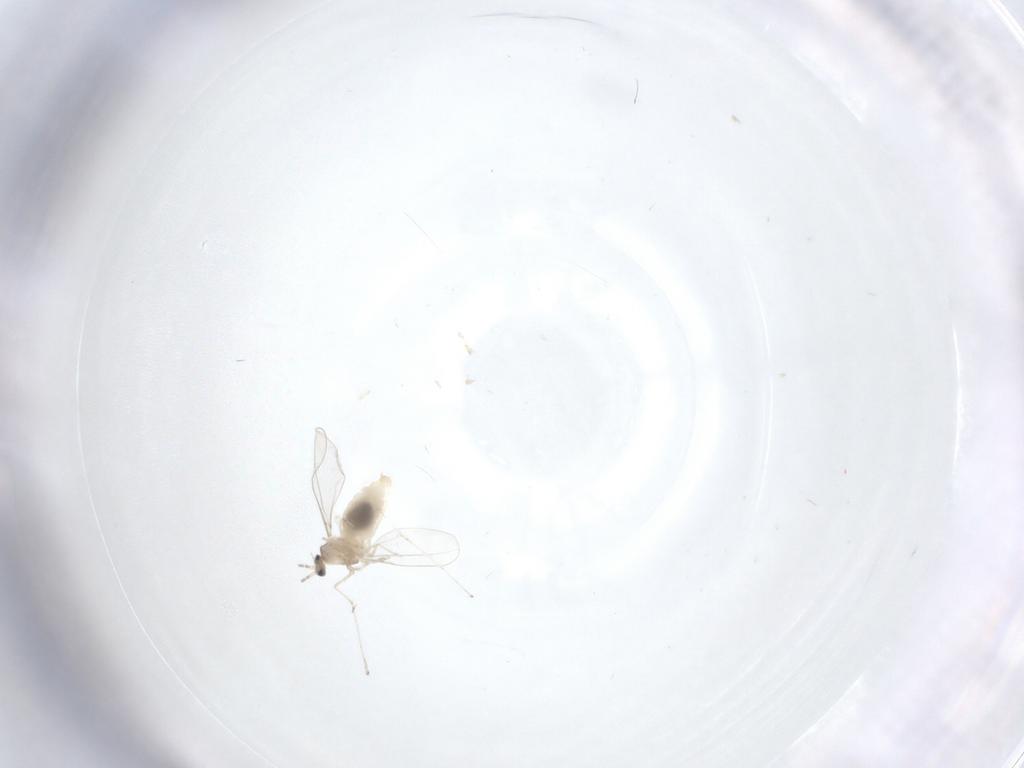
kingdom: Animalia
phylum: Arthropoda
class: Insecta
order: Diptera
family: Cecidomyiidae
